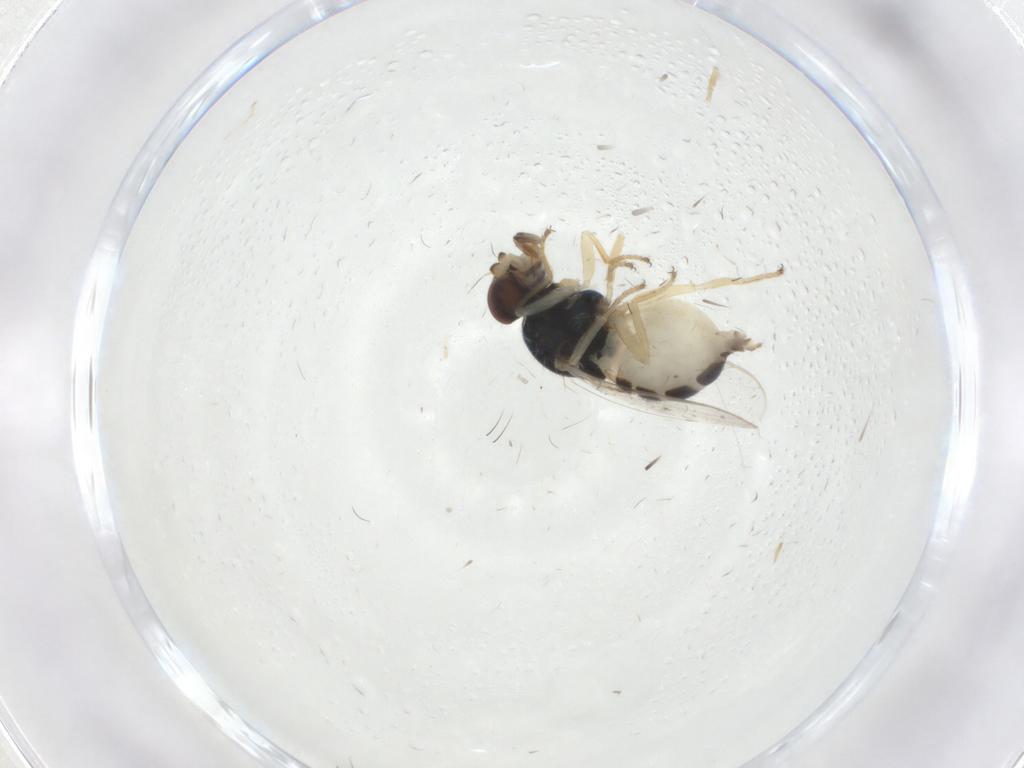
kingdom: Animalia
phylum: Arthropoda
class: Insecta
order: Diptera
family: Chloropidae
